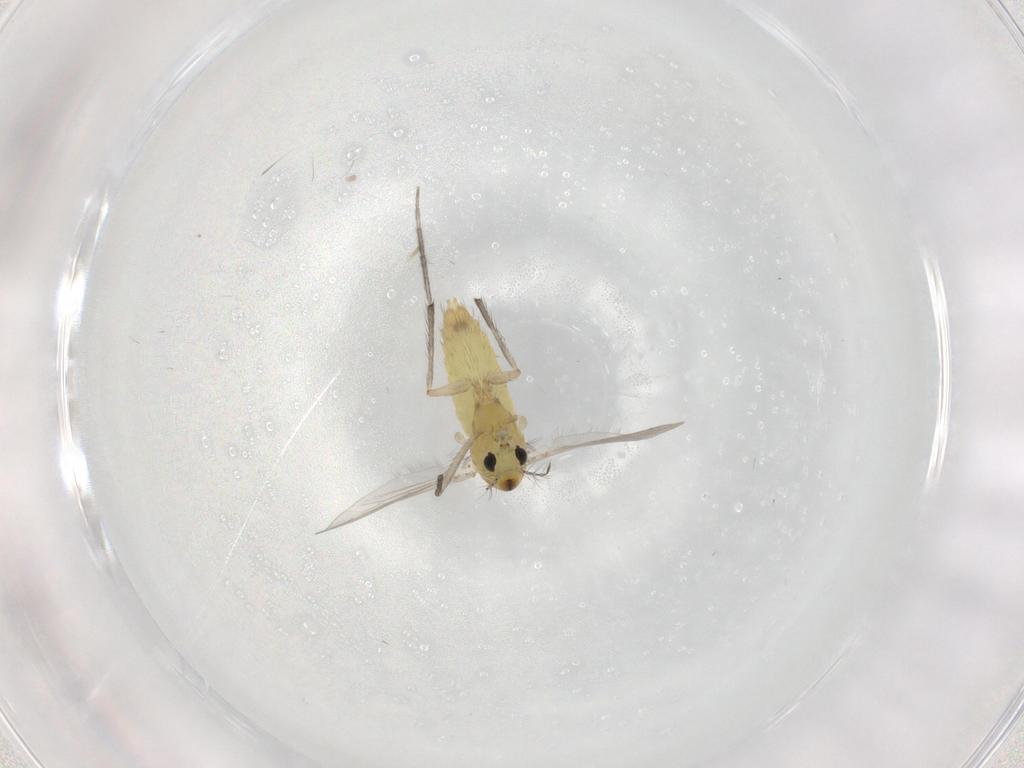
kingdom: Animalia
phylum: Arthropoda
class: Insecta
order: Diptera
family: Chironomidae
